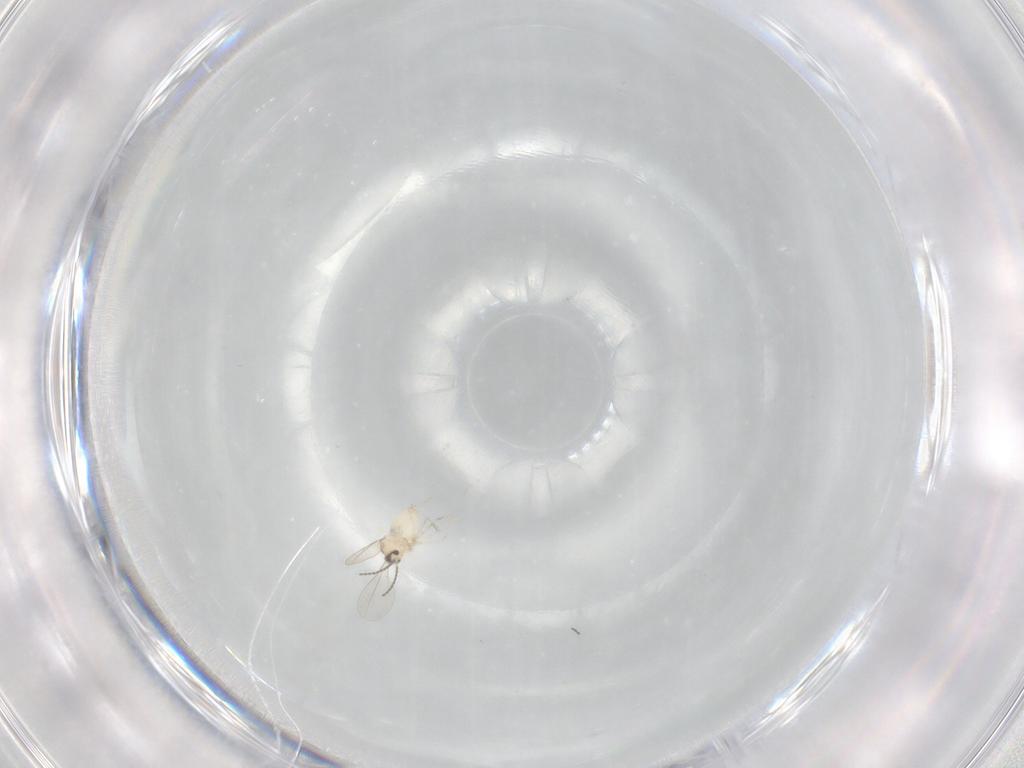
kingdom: Animalia
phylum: Arthropoda
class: Insecta
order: Diptera
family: Cecidomyiidae
